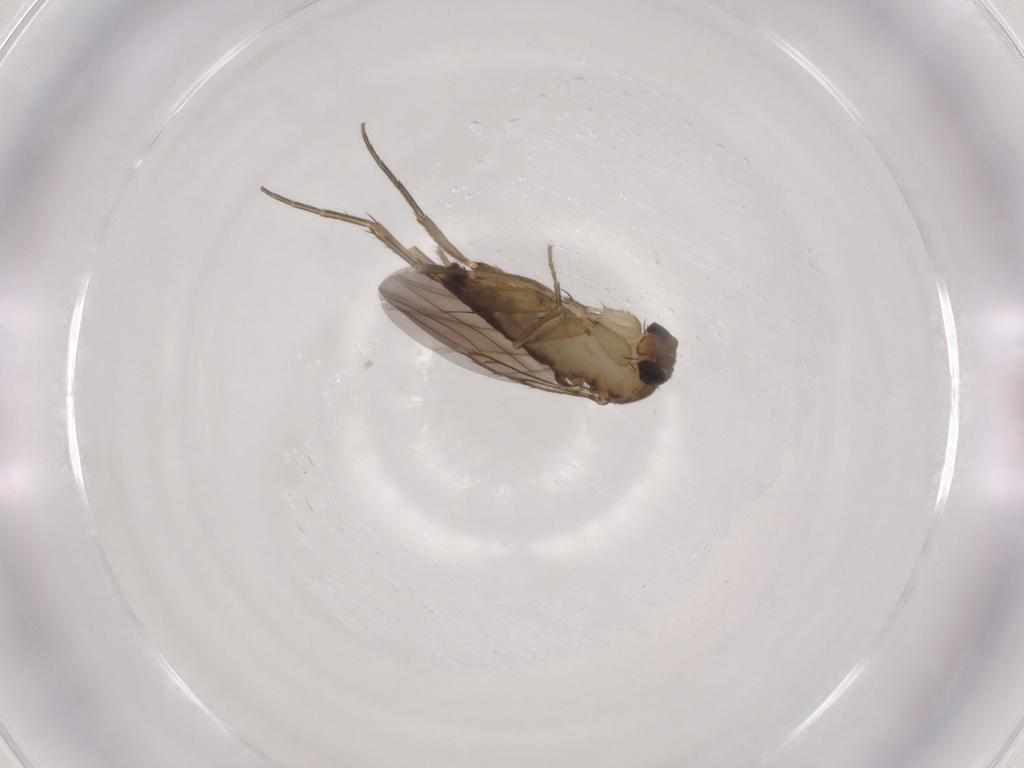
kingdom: Animalia
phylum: Arthropoda
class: Insecta
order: Diptera
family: Phoridae
